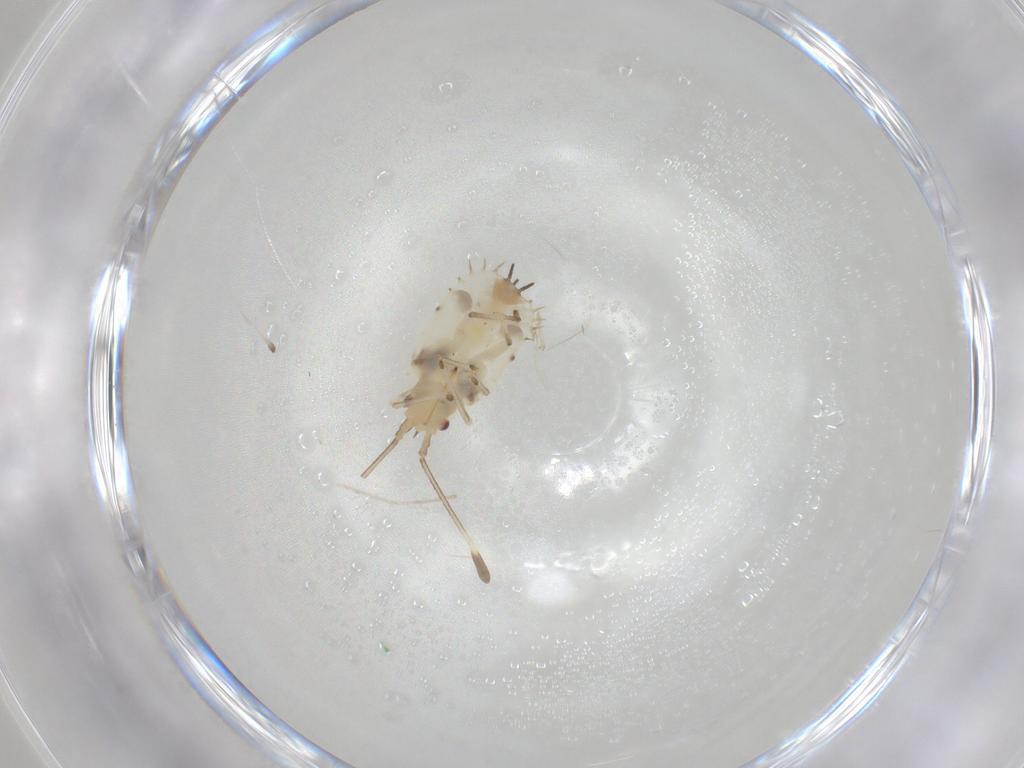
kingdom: Animalia
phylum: Arthropoda
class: Insecta
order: Hemiptera
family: Tingidae
